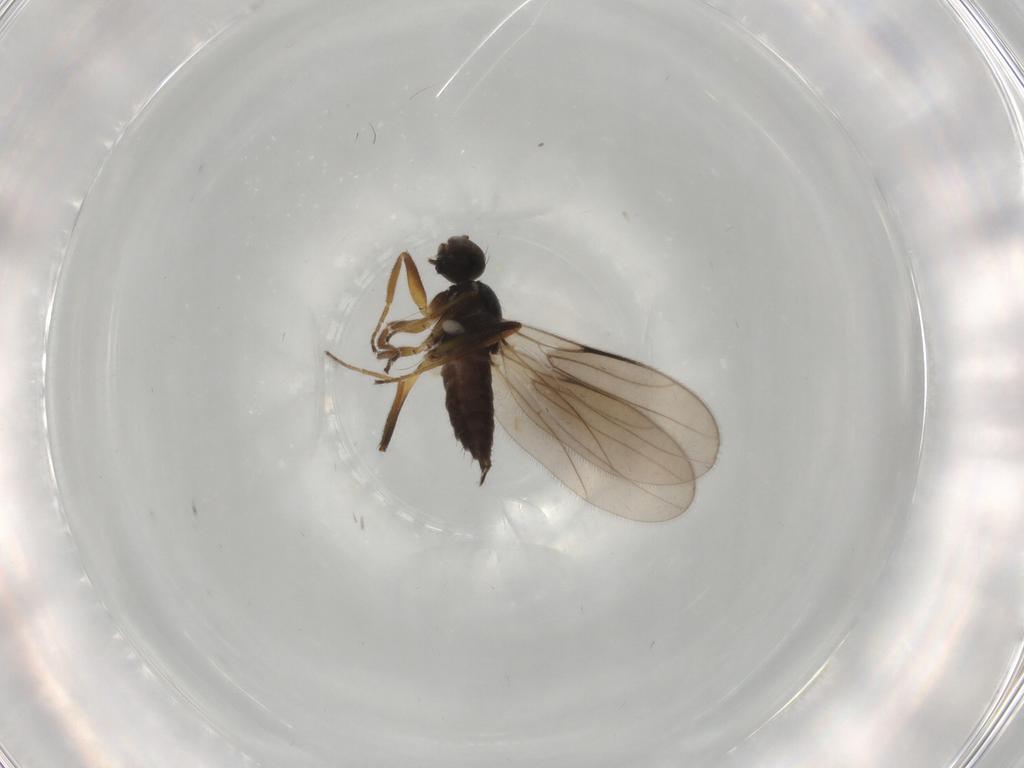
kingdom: Animalia
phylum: Arthropoda
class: Insecta
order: Diptera
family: Hybotidae
